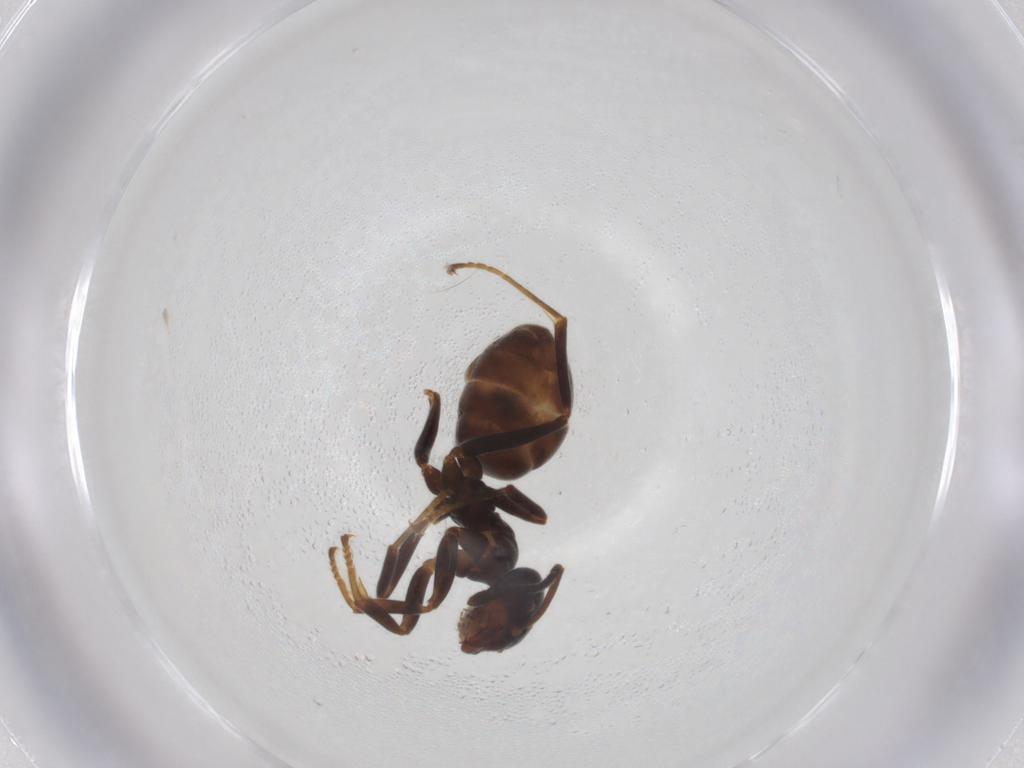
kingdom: Animalia
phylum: Arthropoda
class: Insecta
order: Hymenoptera
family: Formicidae
